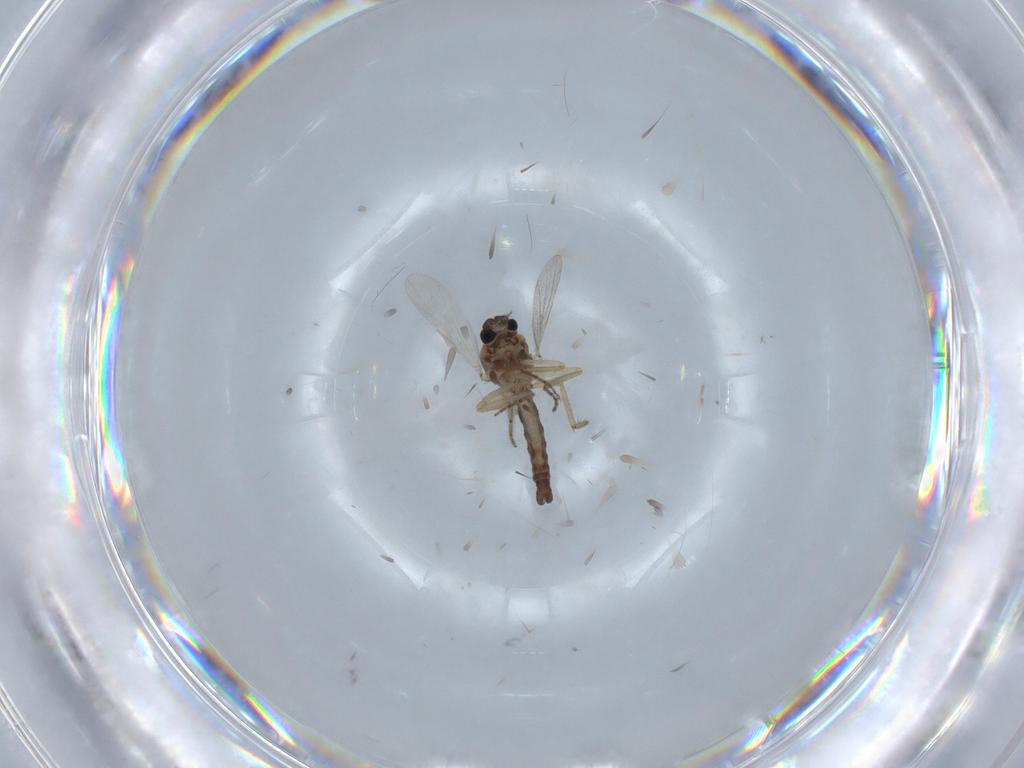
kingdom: Animalia
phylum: Arthropoda
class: Insecta
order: Diptera
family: Ceratopogonidae
